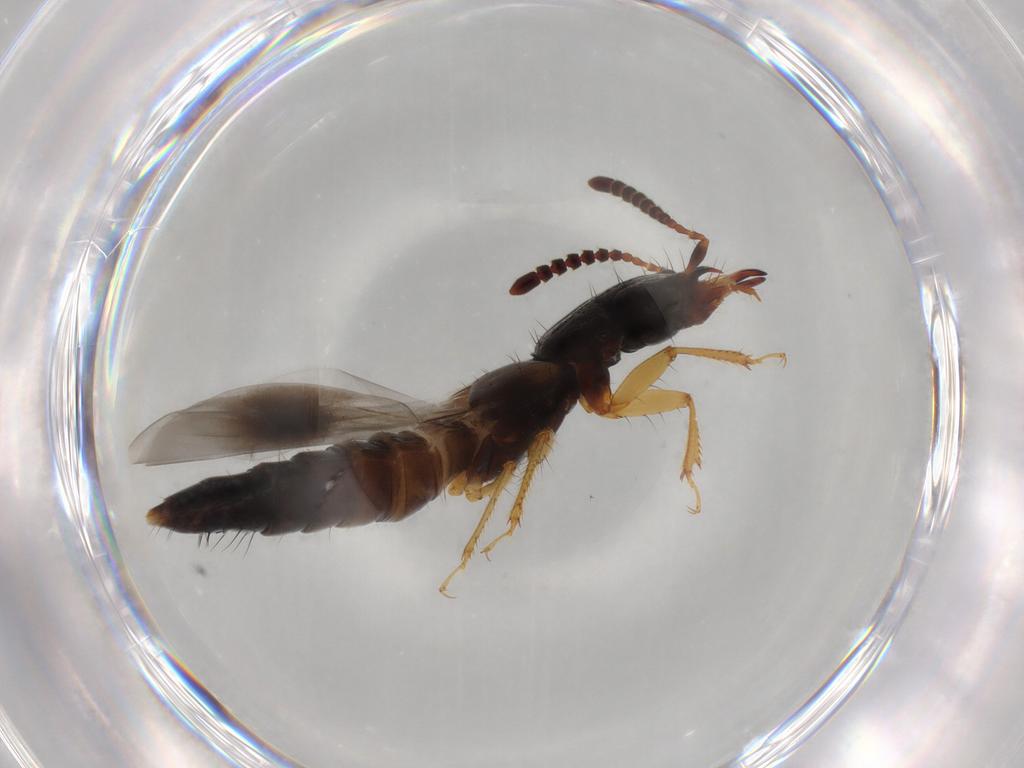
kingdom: Animalia
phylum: Arthropoda
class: Insecta
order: Coleoptera
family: Staphylinidae
